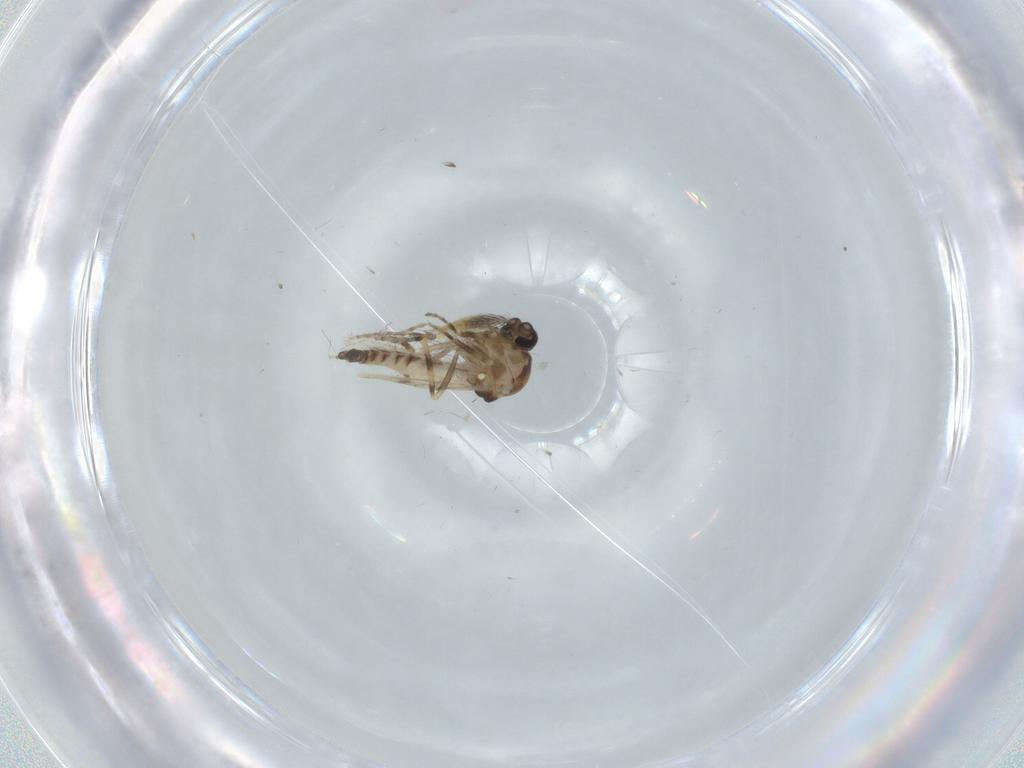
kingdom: Animalia
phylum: Arthropoda
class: Insecta
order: Diptera
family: Ceratopogonidae
